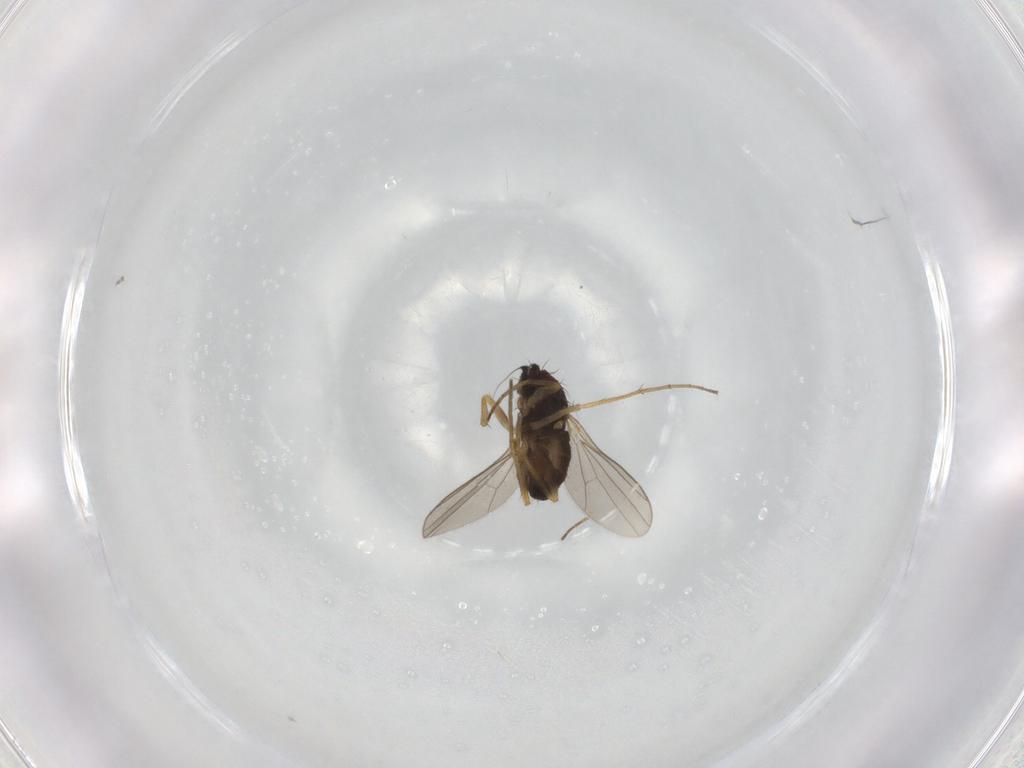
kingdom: Animalia
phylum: Arthropoda
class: Insecta
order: Diptera
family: Dolichopodidae
